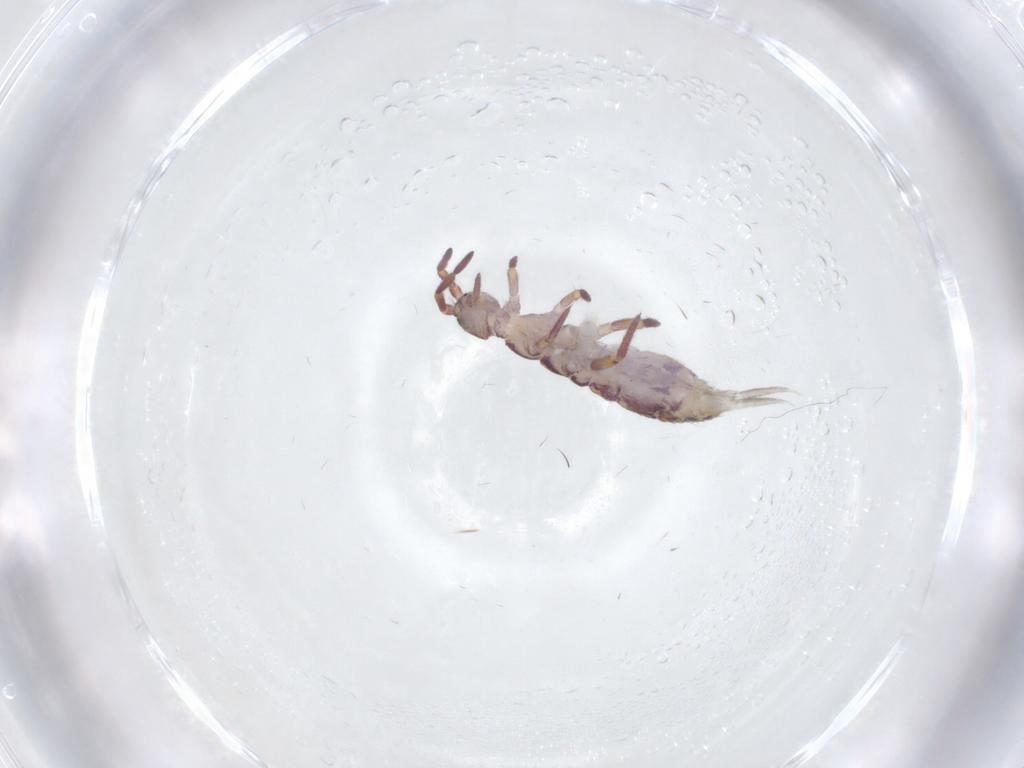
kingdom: Animalia
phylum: Arthropoda
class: Collembola
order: Entomobryomorpha
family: Isotomidae
